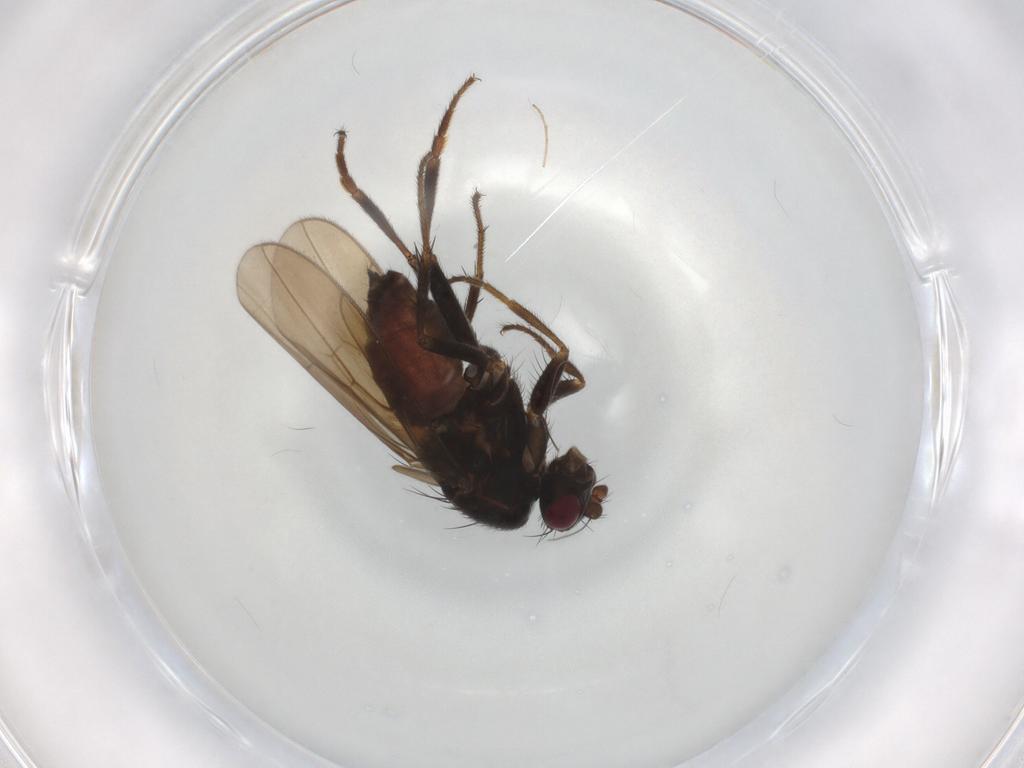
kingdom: Animalia
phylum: Arthropoda
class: Insecta
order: Diptera
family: Sphaeroceridae
